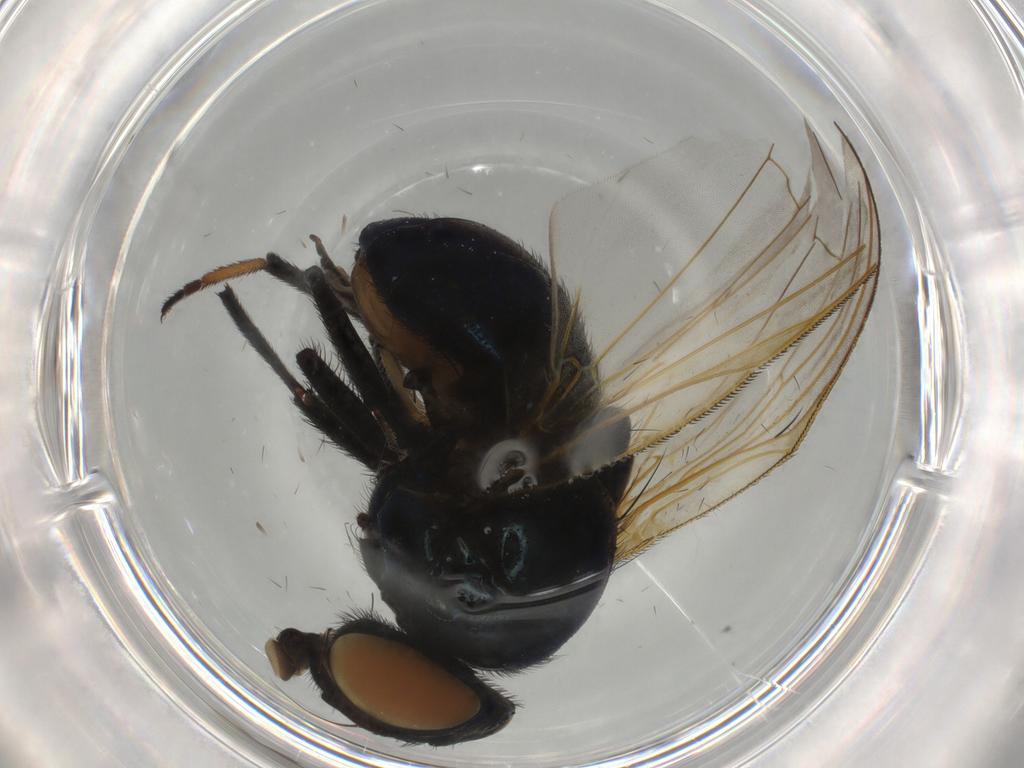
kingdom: Animalia
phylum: Arthropoda
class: Insecta
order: Diptera
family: Lonchaeidae
